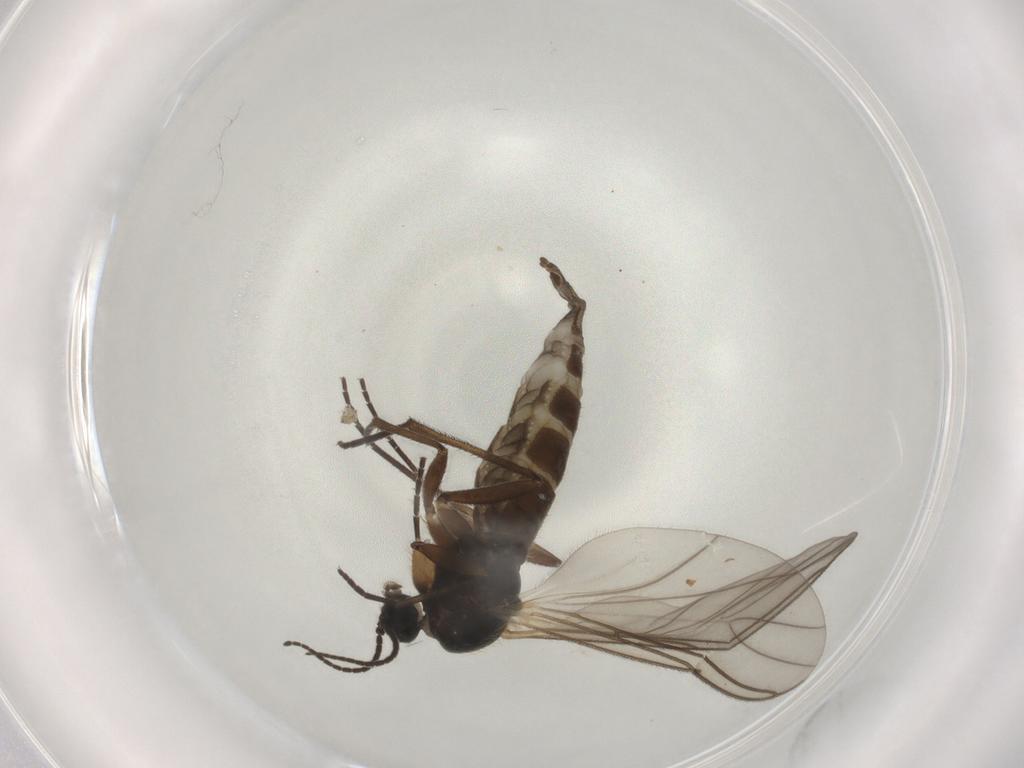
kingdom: Animalia
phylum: Arthropoda
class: Insecta
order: Diptera
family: Sciaridae
